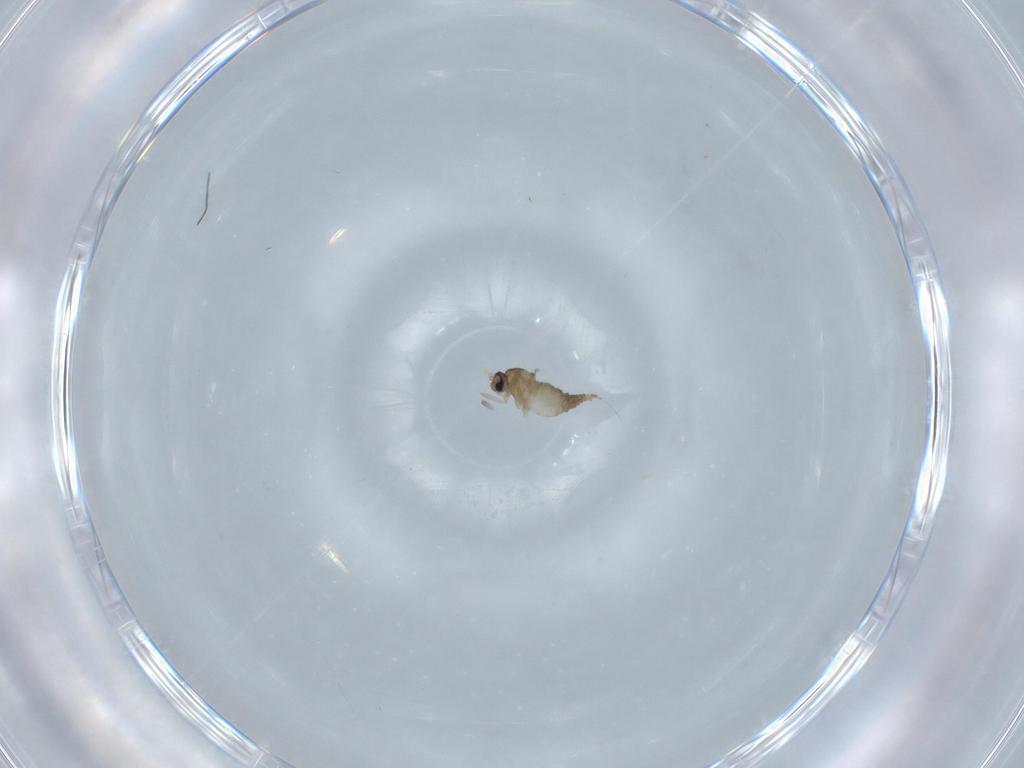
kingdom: Animalia
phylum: Arthropoda
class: Insecta
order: Diptera
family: Cecidomyiidae
